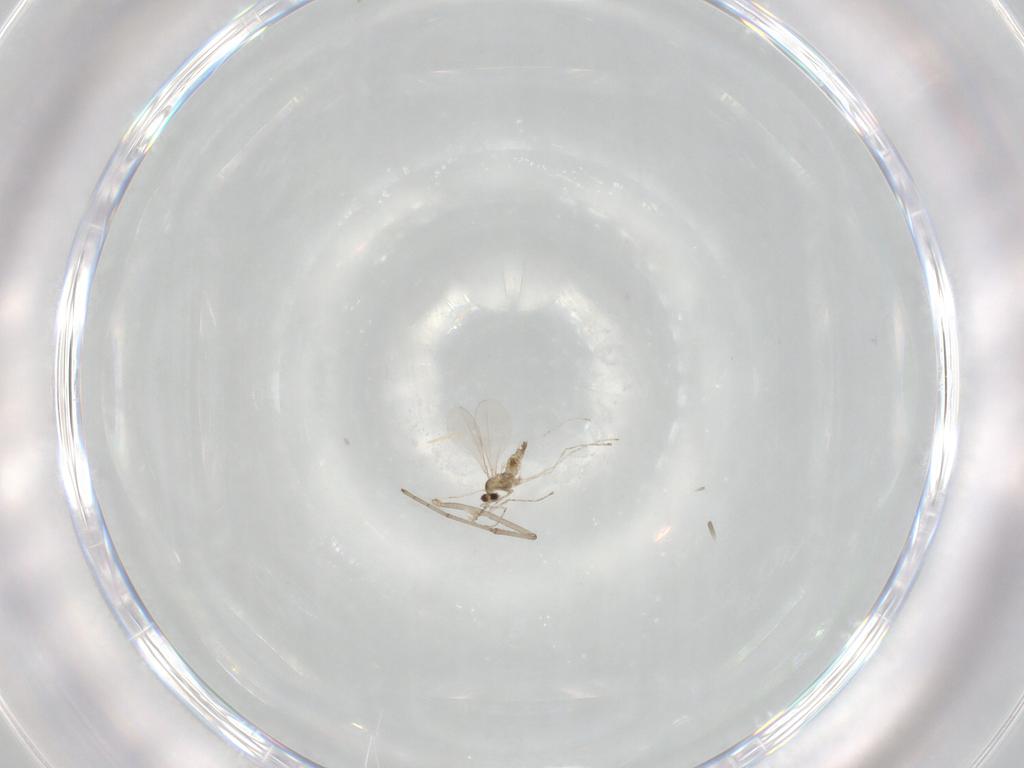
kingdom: Animalia
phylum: Arthropoda
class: Insecta
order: Diptera
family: Cecidomyiidae
